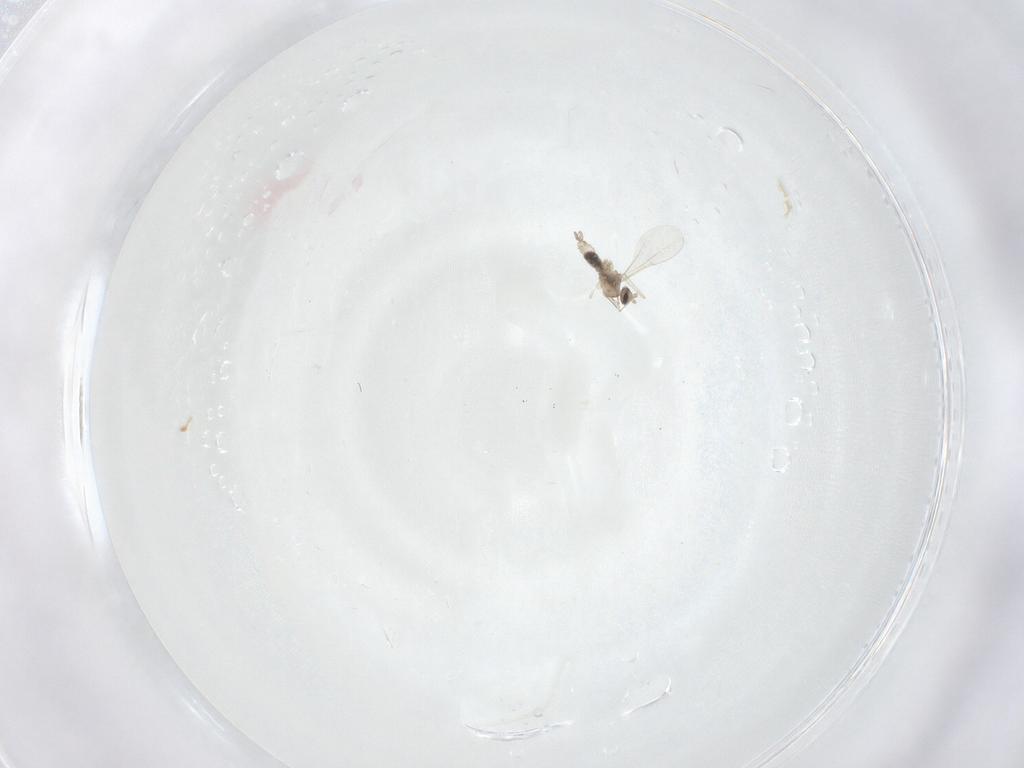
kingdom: Animalia
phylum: Arthropoda
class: Insecta
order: Diptera
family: Cecidomyiidae
